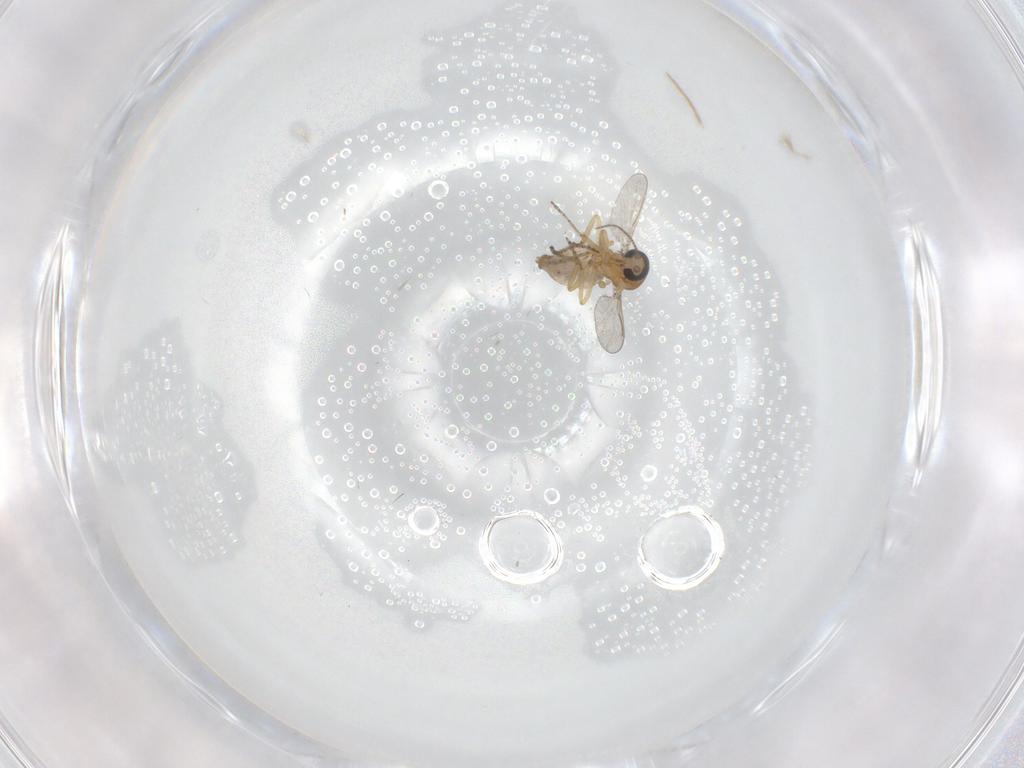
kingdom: Animalia
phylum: Arthropoda
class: Insecta
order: Diptera
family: Ceratopogonidae
